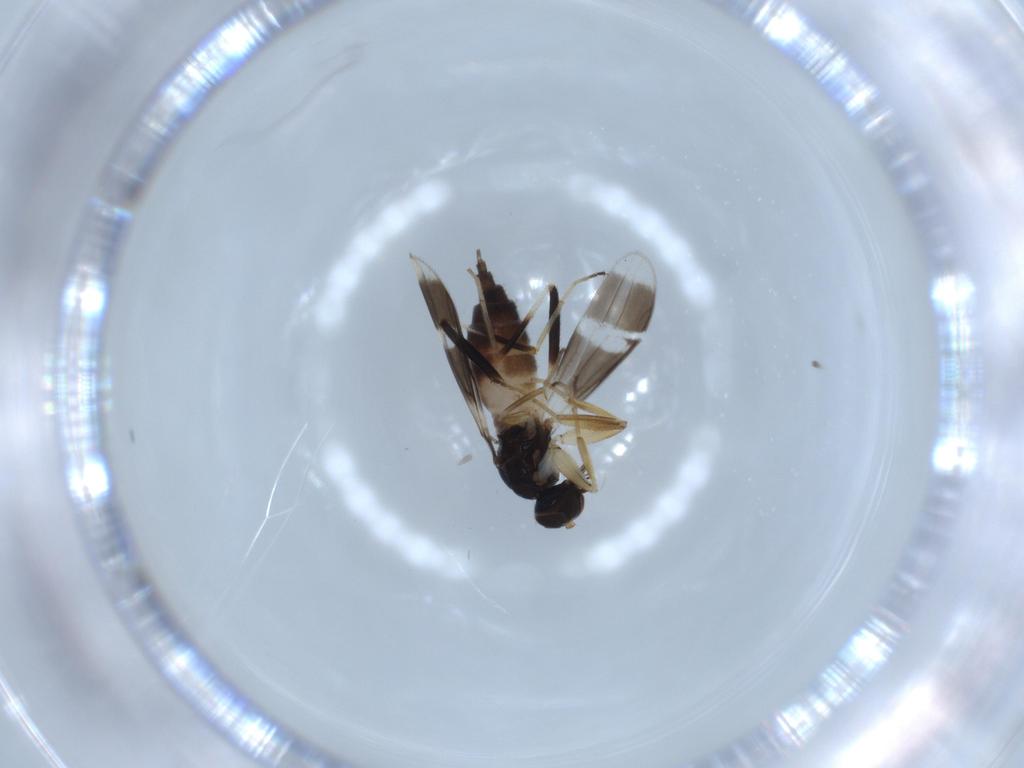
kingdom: Animalia
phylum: Arthropoda
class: Insecta
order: Diptera
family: Hybotidae
